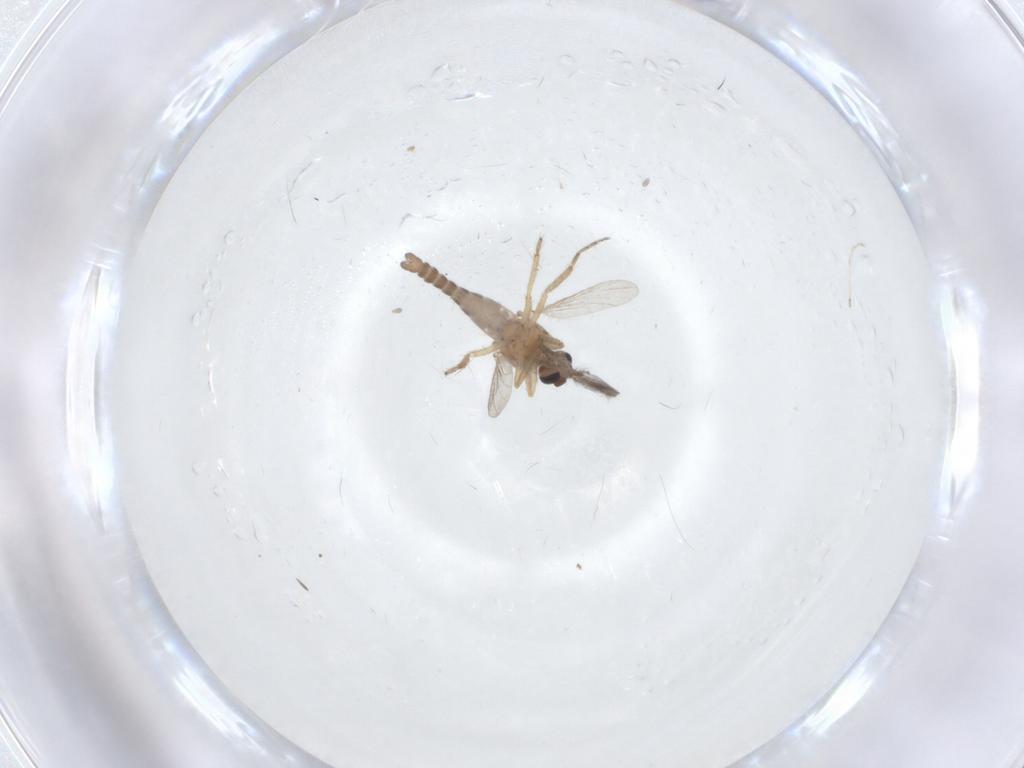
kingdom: Animalia
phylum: Arthropoda
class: Insecta
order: Diptera
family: Ceratopogonidae
